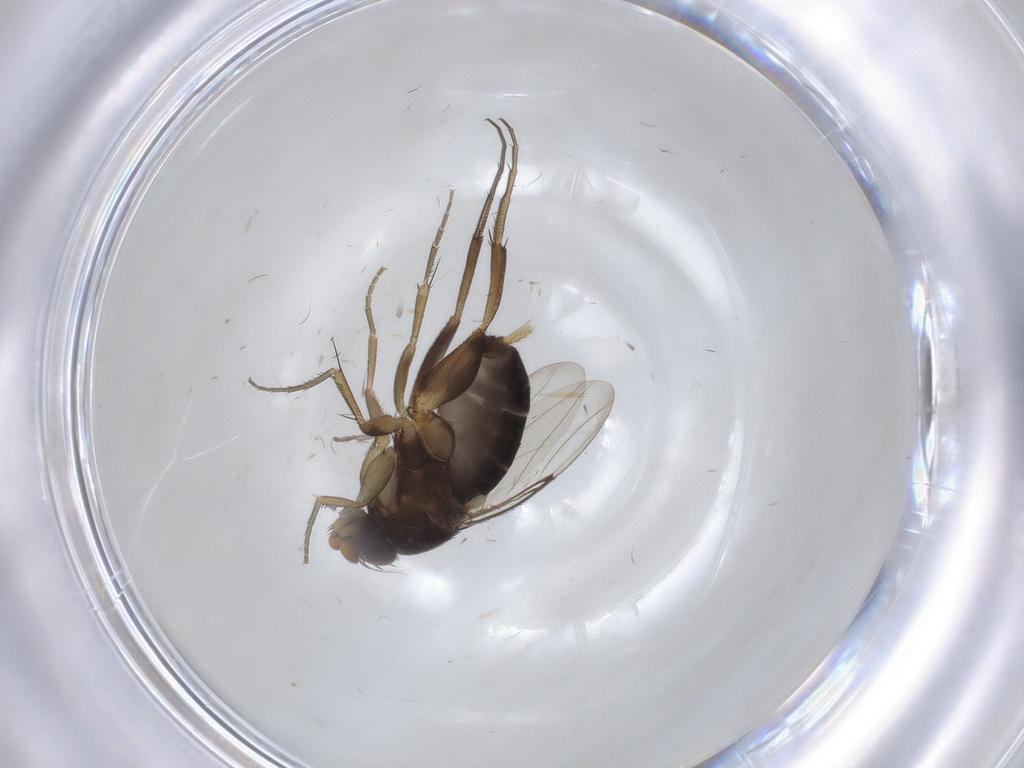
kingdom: Animalia
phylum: Arthropoda
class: Insecta
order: Diptera
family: Phoridae
